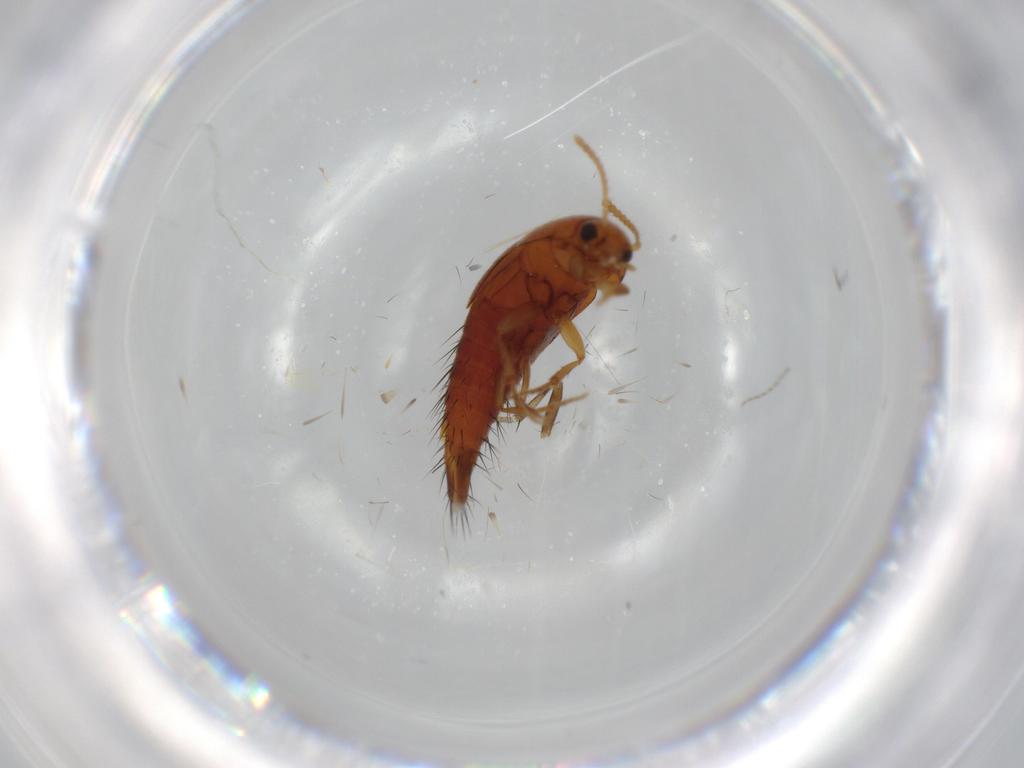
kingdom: Animalia
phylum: Arthropoda
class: Insecta
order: Coleoptera
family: Staphylinidae
